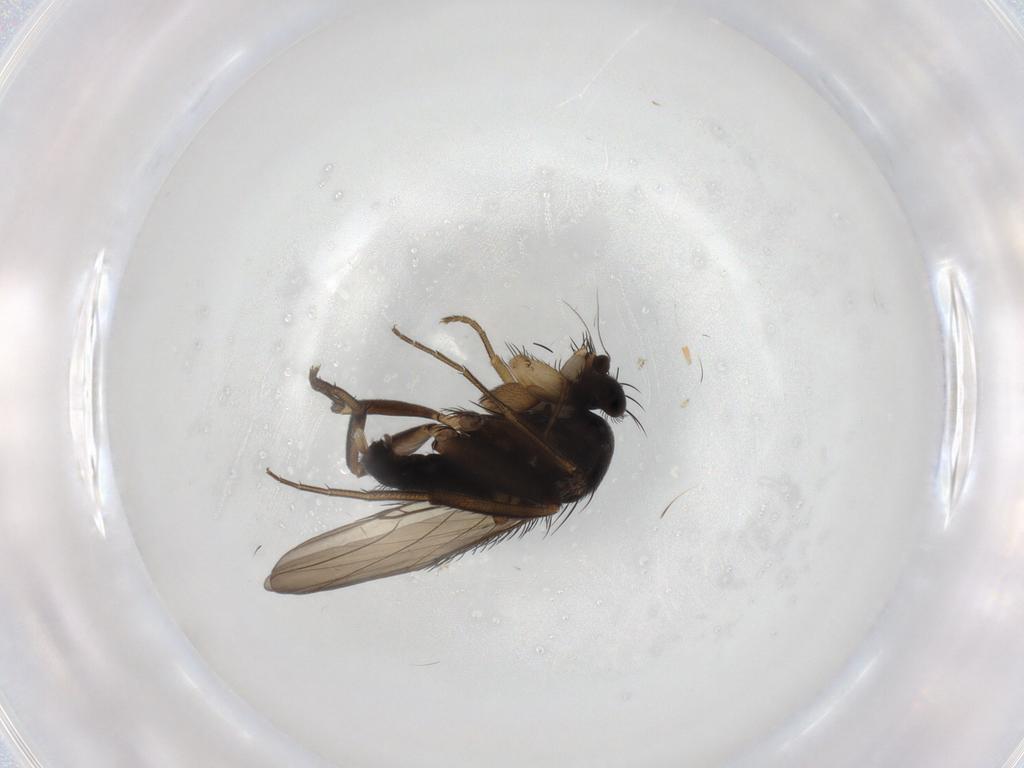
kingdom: Animalia
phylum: Arthropoda
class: Insecta
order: Diptera
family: Phoridae
